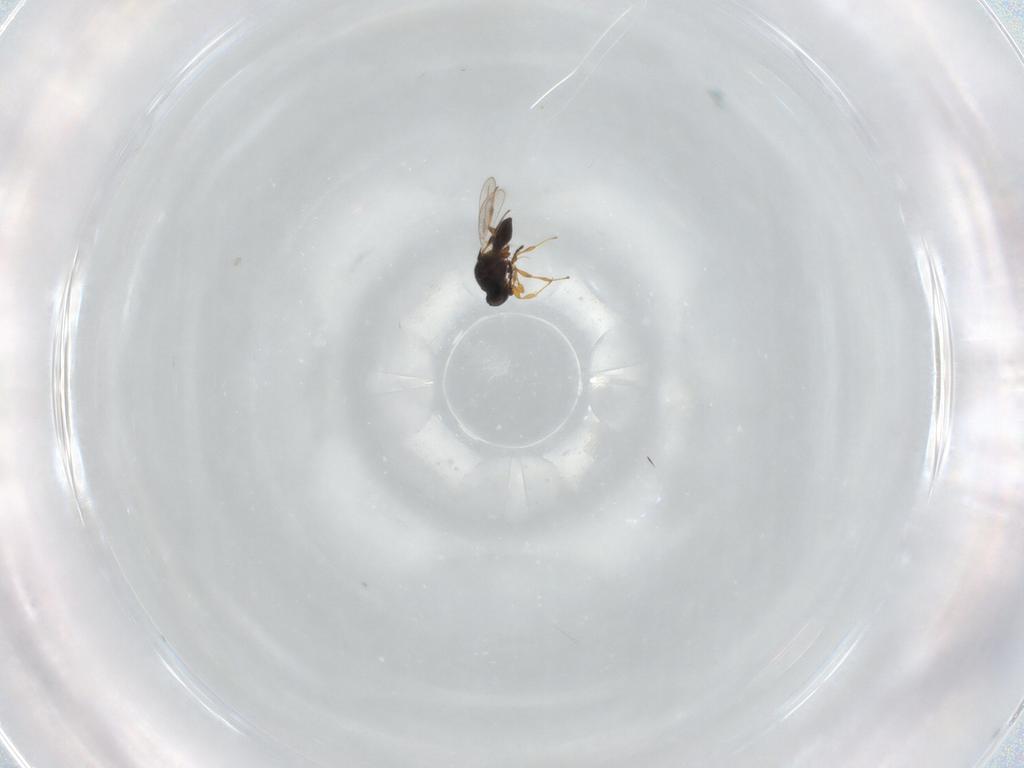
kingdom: Animalia
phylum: Arthropoda
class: Insecta
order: Hymenoptera
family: Platygastridae
